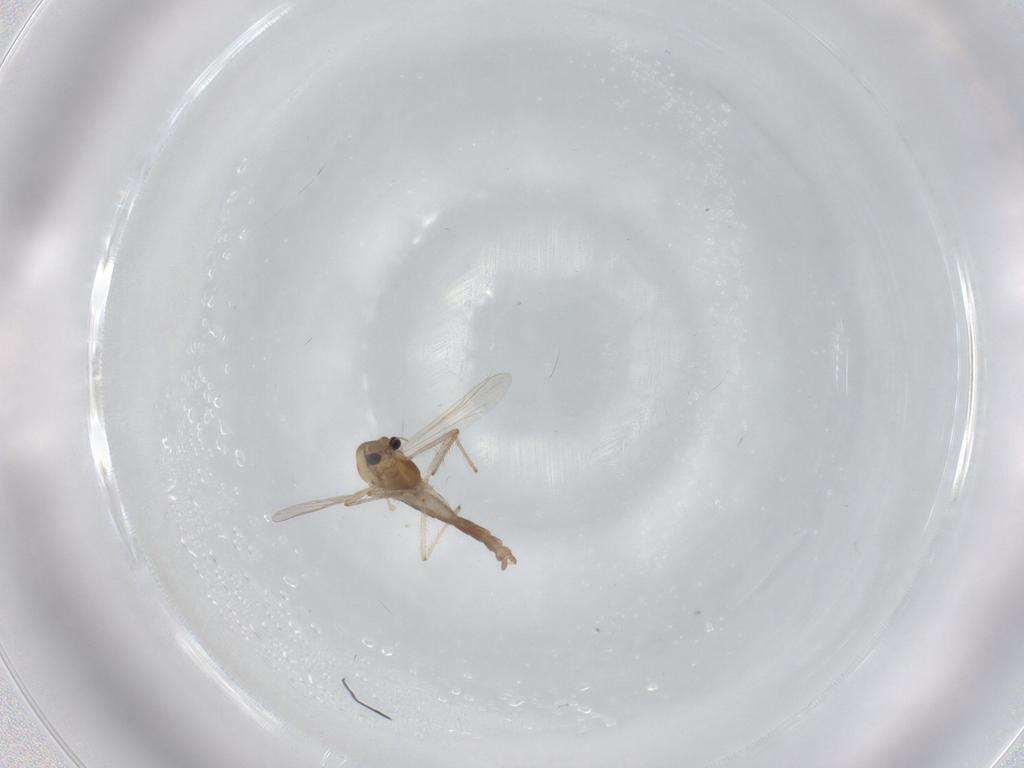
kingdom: Animalia
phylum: Arthropoda
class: Insecta
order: Diptera
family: Chironomidae
